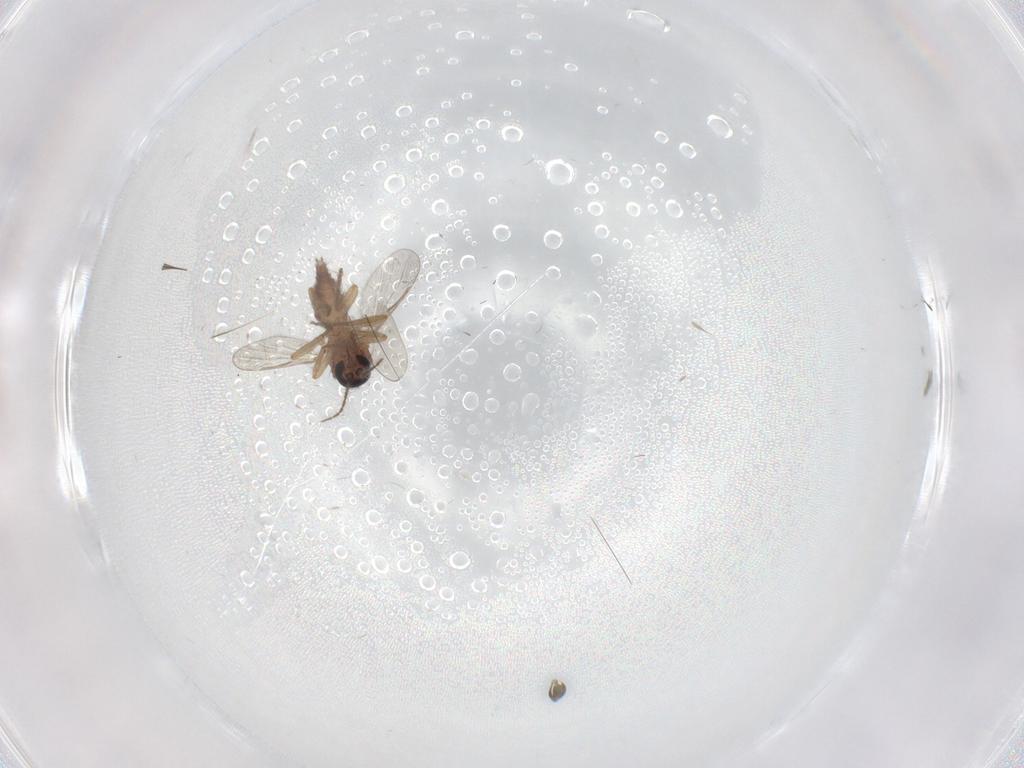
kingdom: Animalia
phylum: Arthropoda
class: Insecta
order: Diptera
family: Ceratopogonidae
